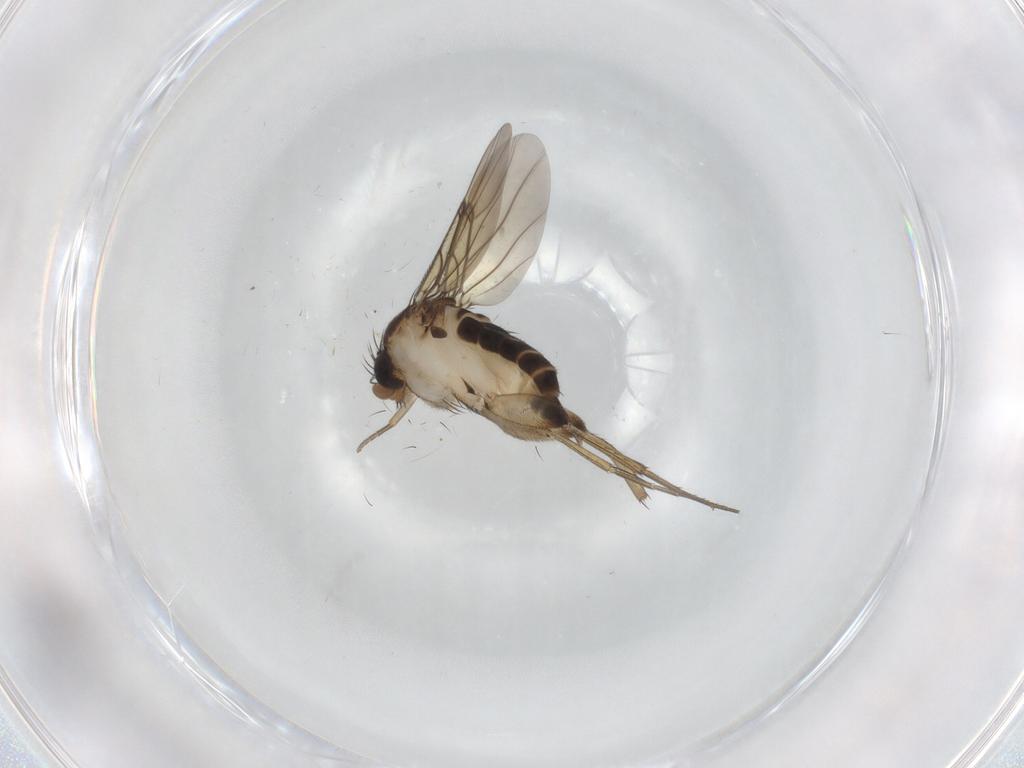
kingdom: Animalia
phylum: Arthropoda
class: Insecta
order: Diptera
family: Phoridae
